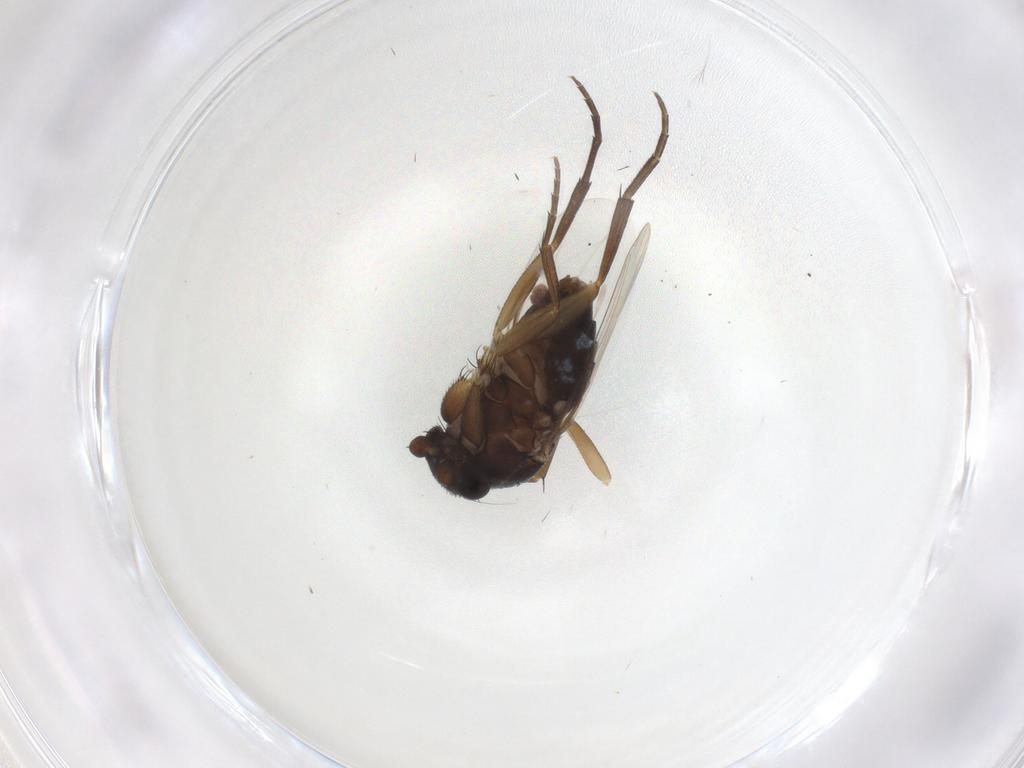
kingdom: Animalia
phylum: Arthropoda
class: Insecta
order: Diptera
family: Phoridae
